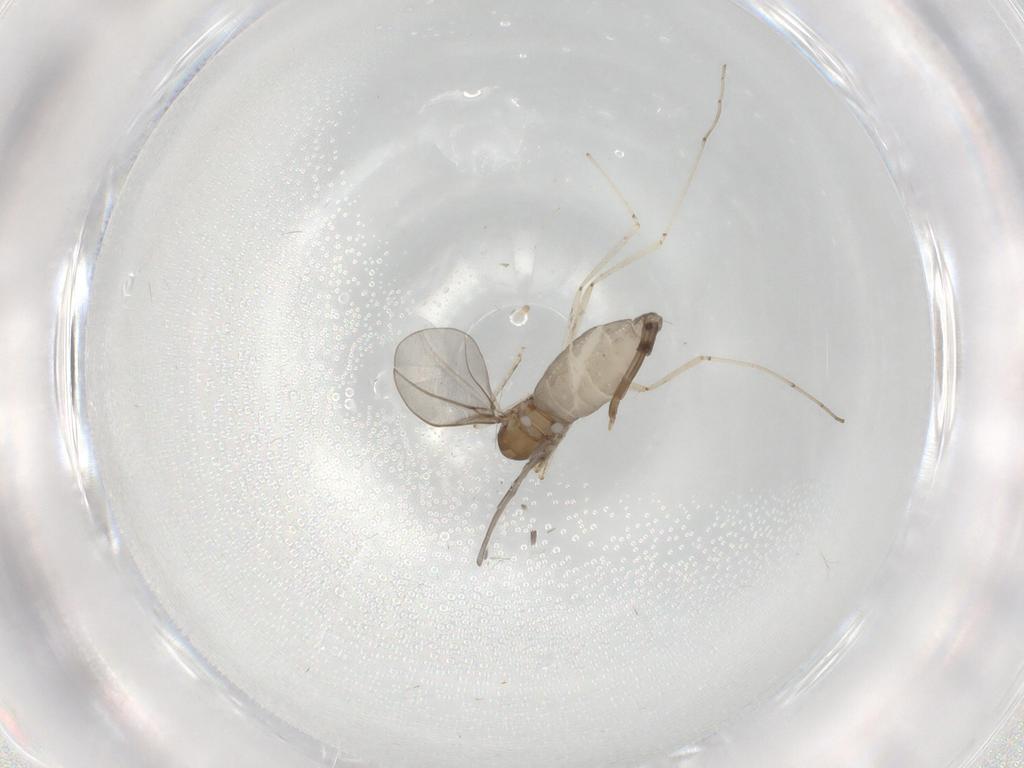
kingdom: Animalia
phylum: Arthropoda
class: Insecta
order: Diptera
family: Cecidomyiidae
